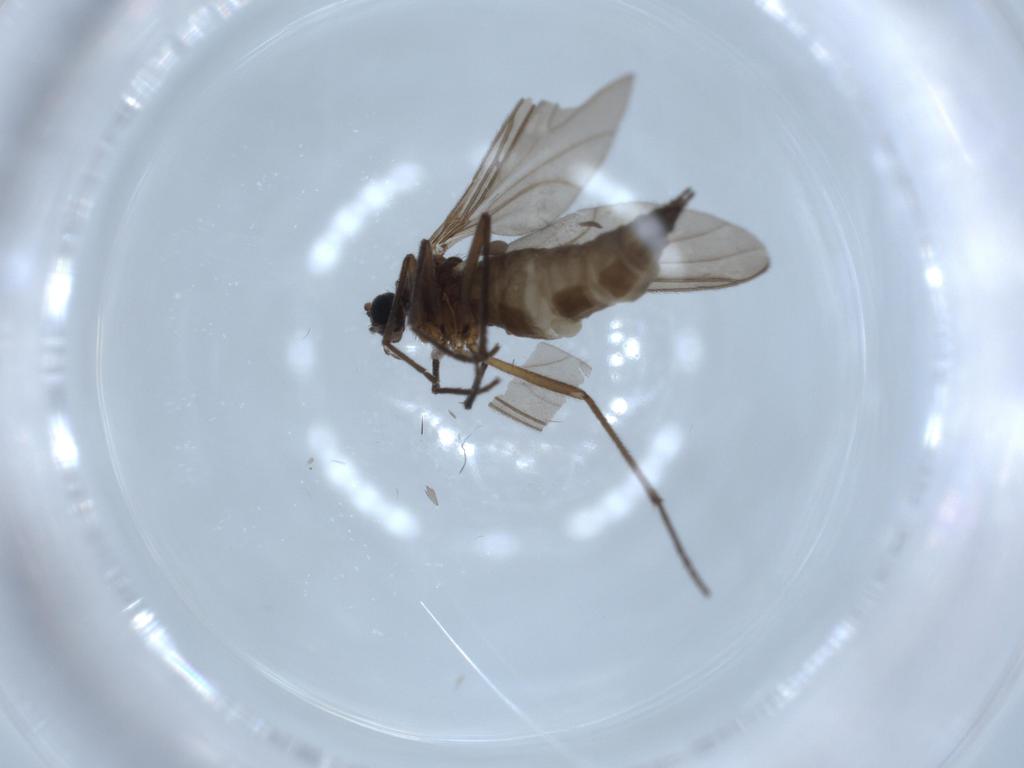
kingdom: Animalia
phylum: Arthropoda
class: Insecta
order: Diptera
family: Sciaridae
